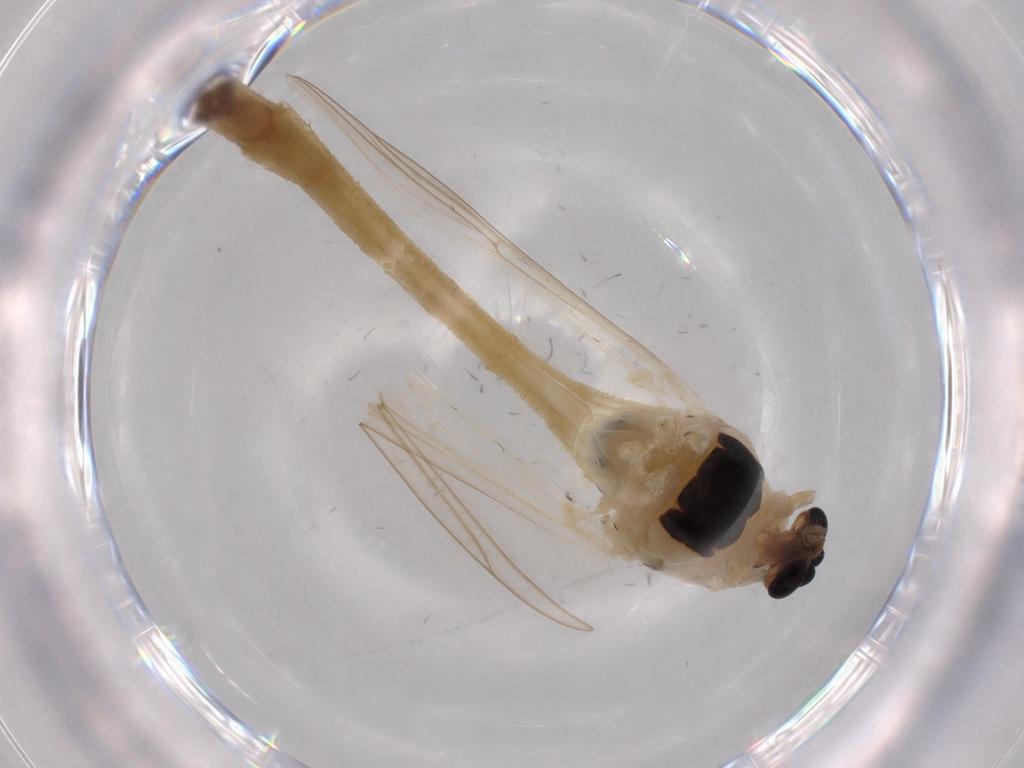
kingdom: Animalia
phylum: Arthropoda
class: Insecta
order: Diptera
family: Chironomidae
